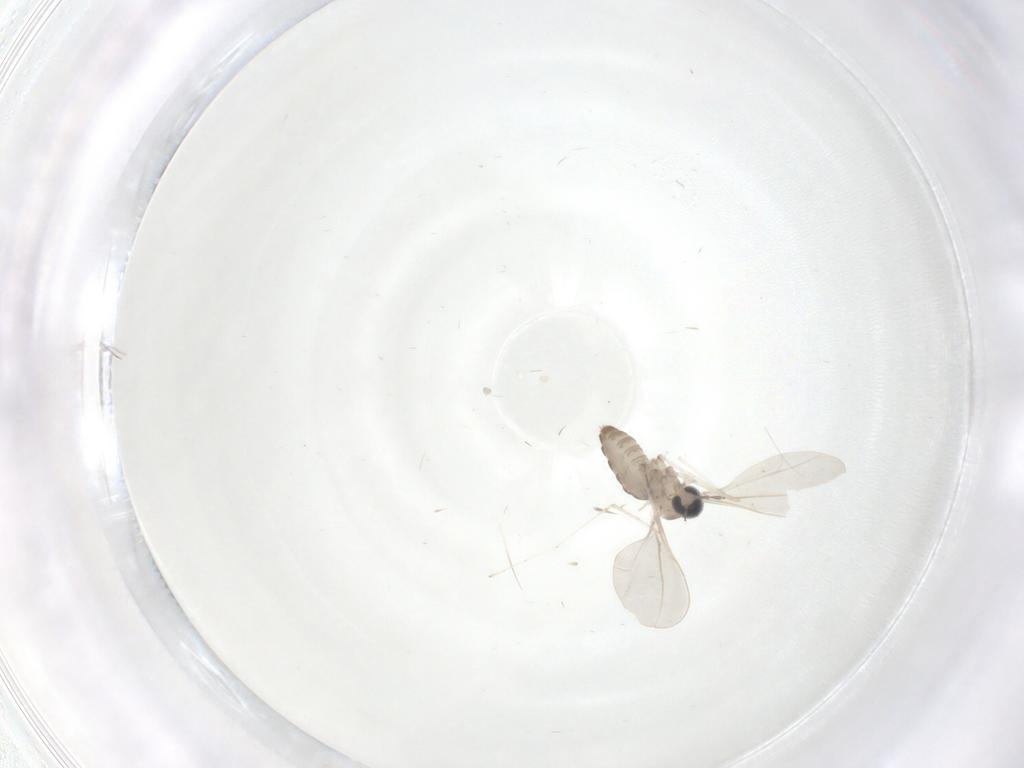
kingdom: Animalia
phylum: Arthropoda
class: Insecta
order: Diptera
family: Cecidomyiidae
